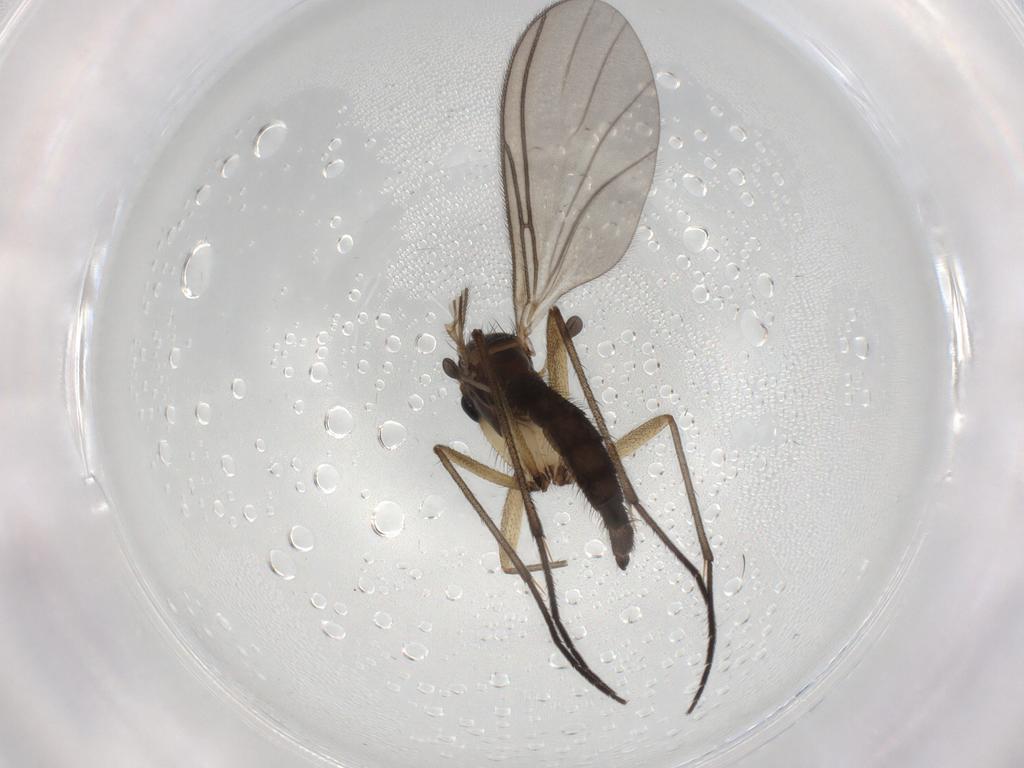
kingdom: Animalia
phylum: Arthropoda
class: Insecta
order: Diptera
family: Sciaridae
